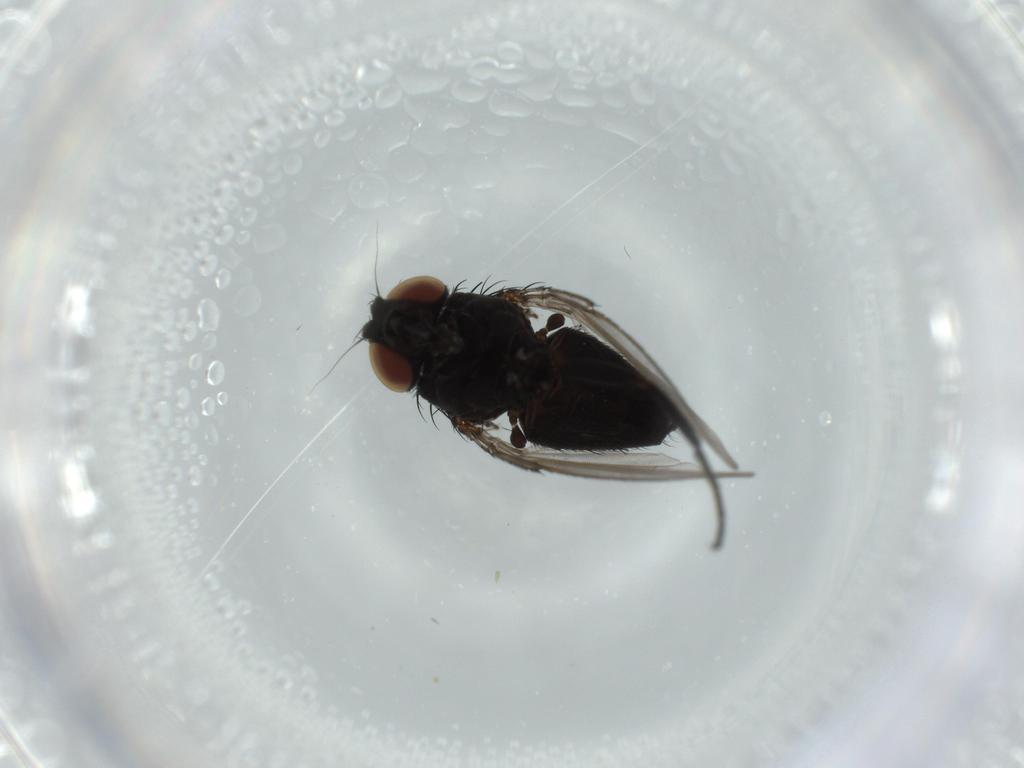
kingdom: Animalia
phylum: Arthropoda
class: Insecta
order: Diptera
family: Milichiidae
